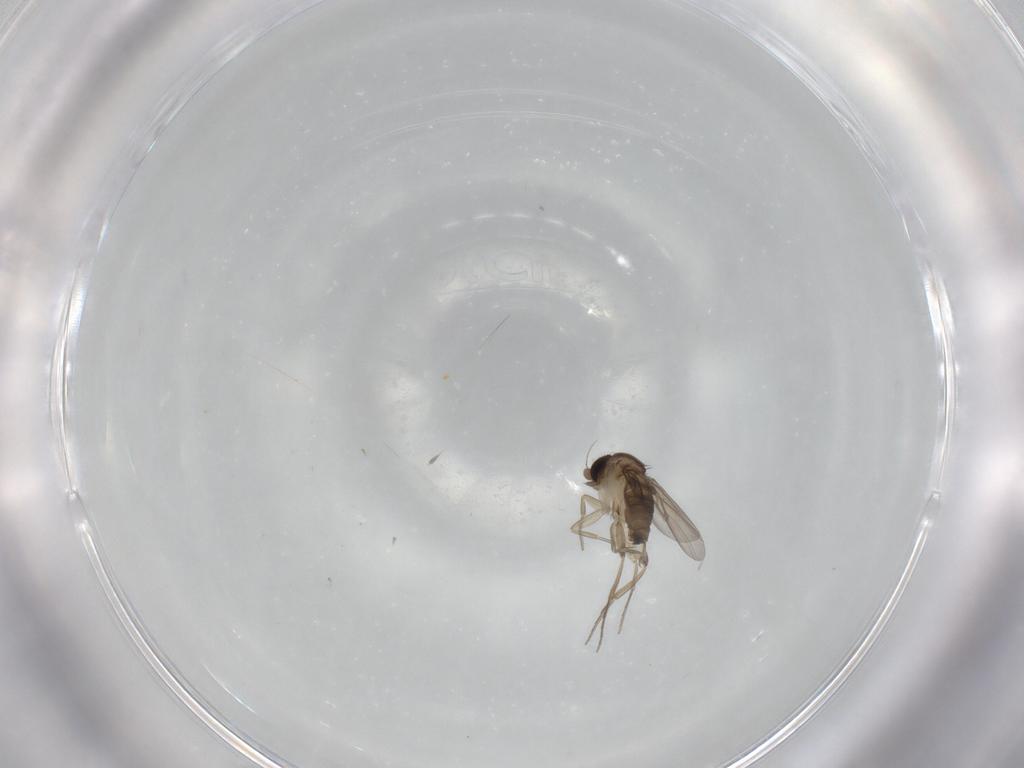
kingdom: Animalia
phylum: Arthropoda
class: Insecta
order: Diptera
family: Phoridae
